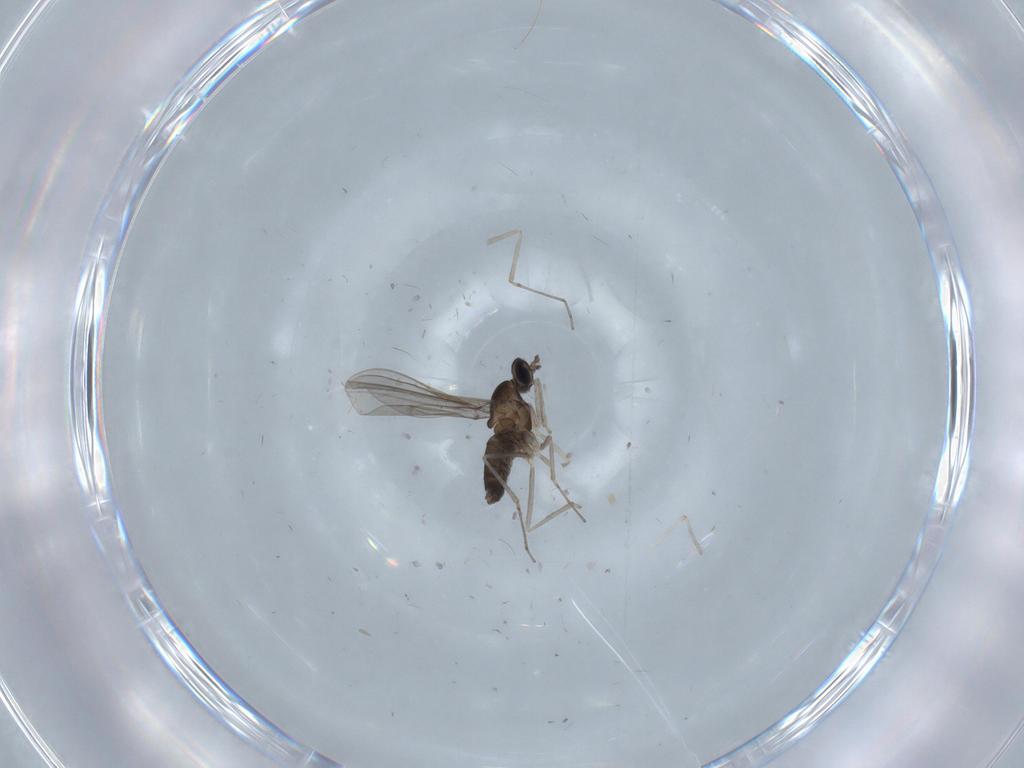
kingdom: Animalia
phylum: Arthropoda
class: Insecta
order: Diptera
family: Cecidomyiidae
